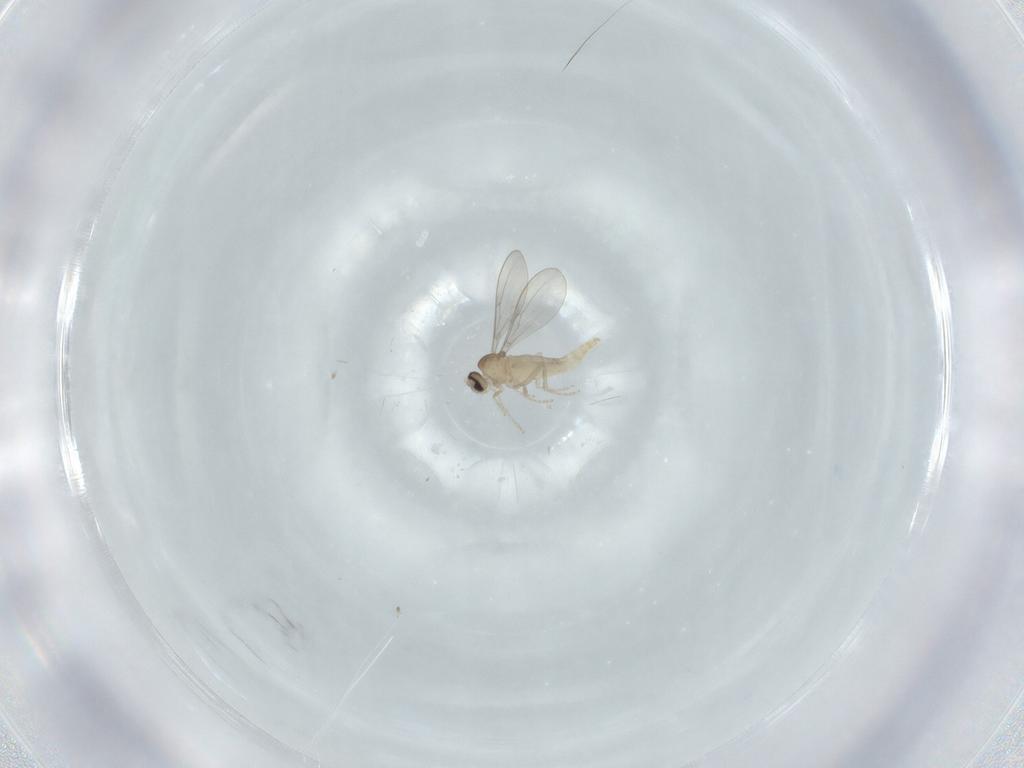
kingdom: Animalia
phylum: Arthropoda
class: Insecta
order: Diptera
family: Cecidomyiidae
